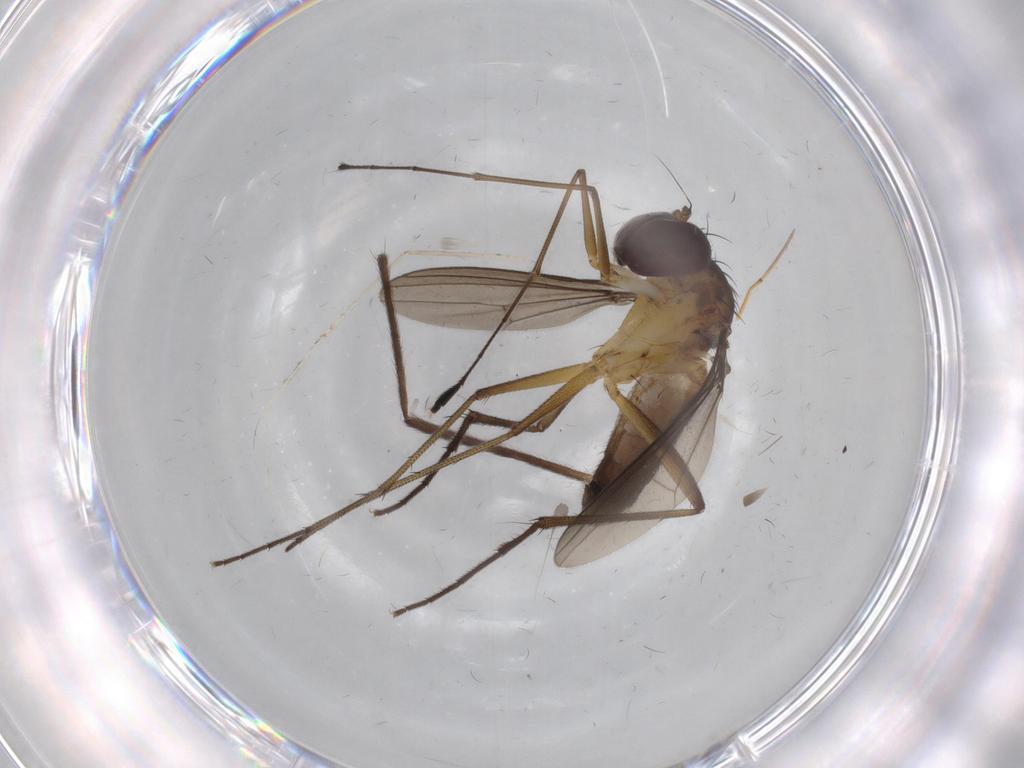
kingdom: Animalia
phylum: Arthropoda
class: Insecta
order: Diptera
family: Dolichopodidae
